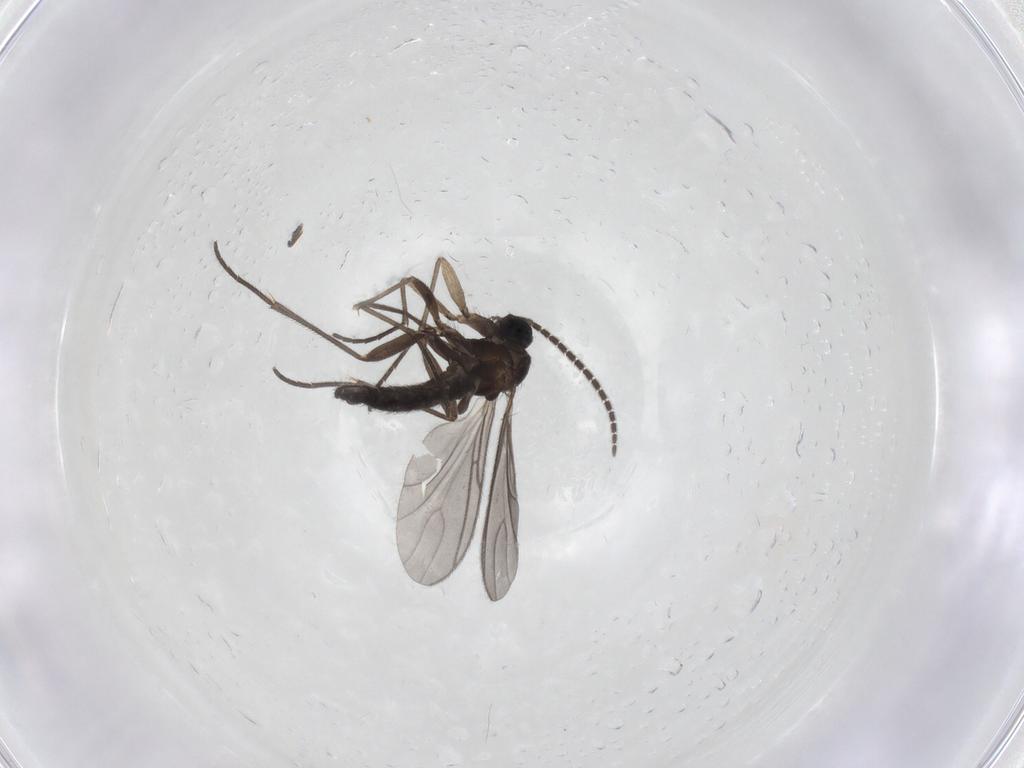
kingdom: Animalia
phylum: Arthropoda
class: Insecta
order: Diptera
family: Sciaridae
